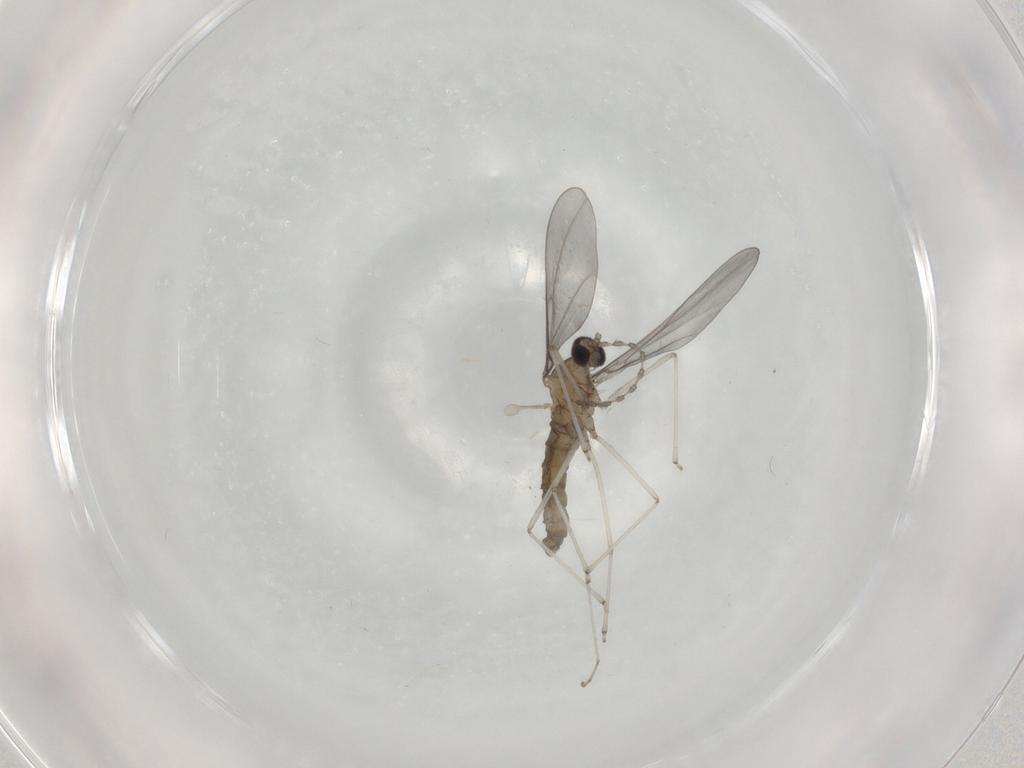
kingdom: Animalia
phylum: Arthropoda
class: Insecta
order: Diptera
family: Cecidomyiidae
